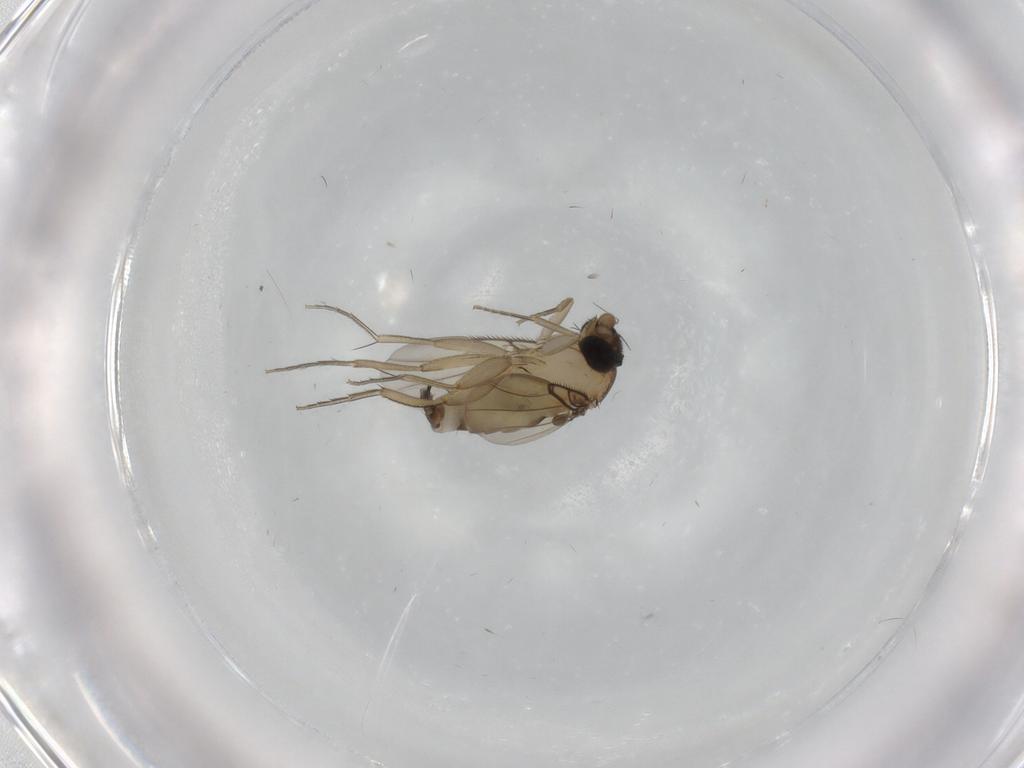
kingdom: Animalia
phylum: Arthropoda
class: Insecta
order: Diptera
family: Phoridae
